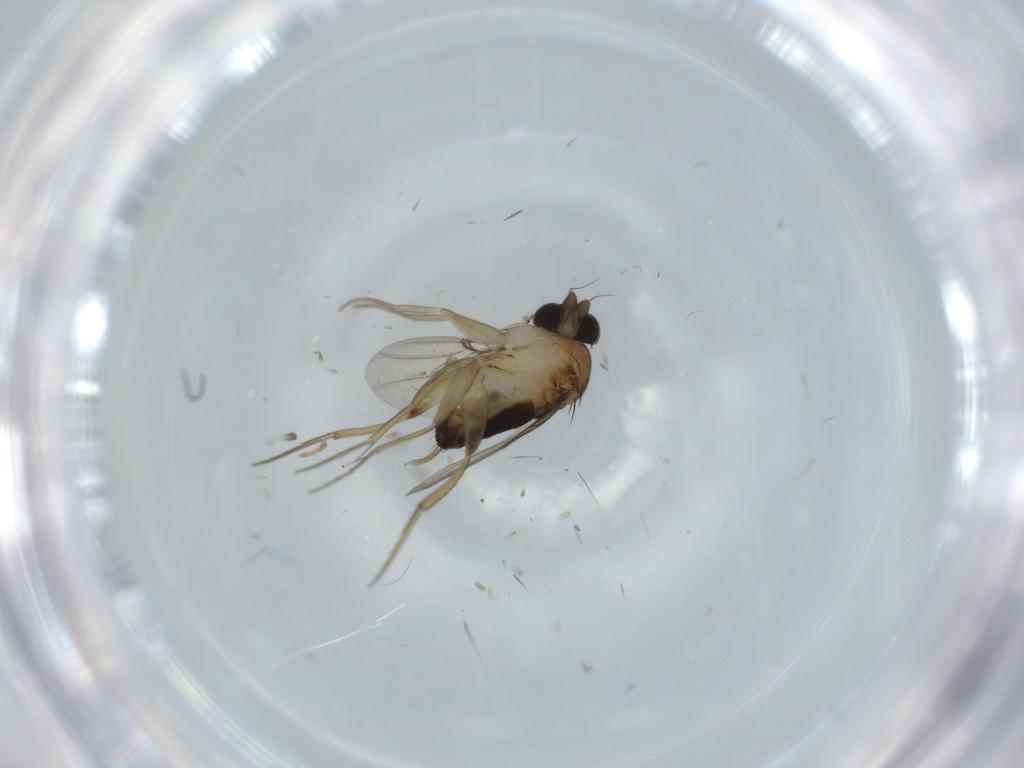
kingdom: Animalia
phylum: Arthropoda
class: Insecta
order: Diptera
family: Phoridae
